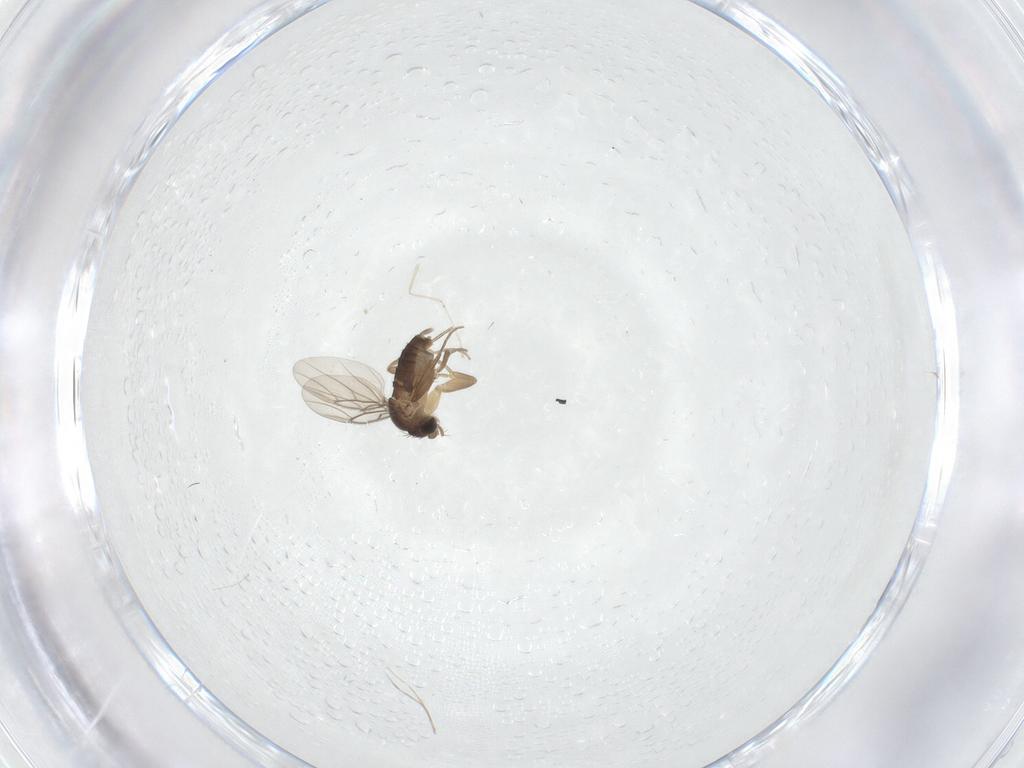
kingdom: Animalia
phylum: Arthropoda
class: Insecta
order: Diptera
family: Phoridae
